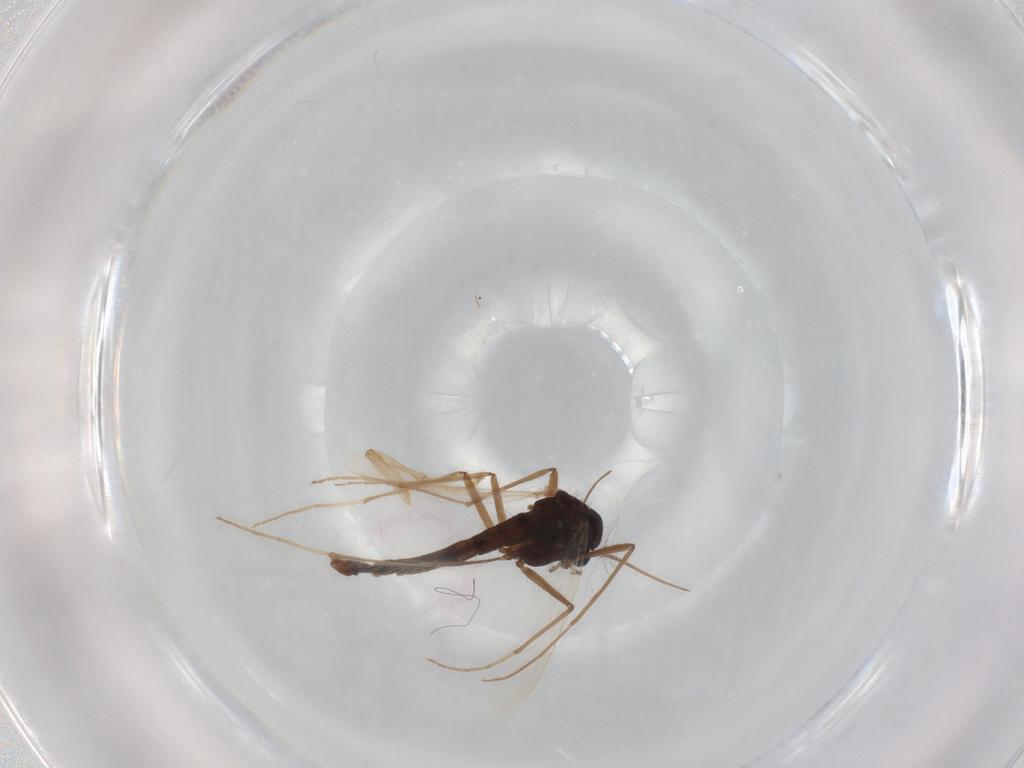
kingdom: Animalia
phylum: Arthropoda
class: Insecta
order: Diptera
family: Chironomidae
